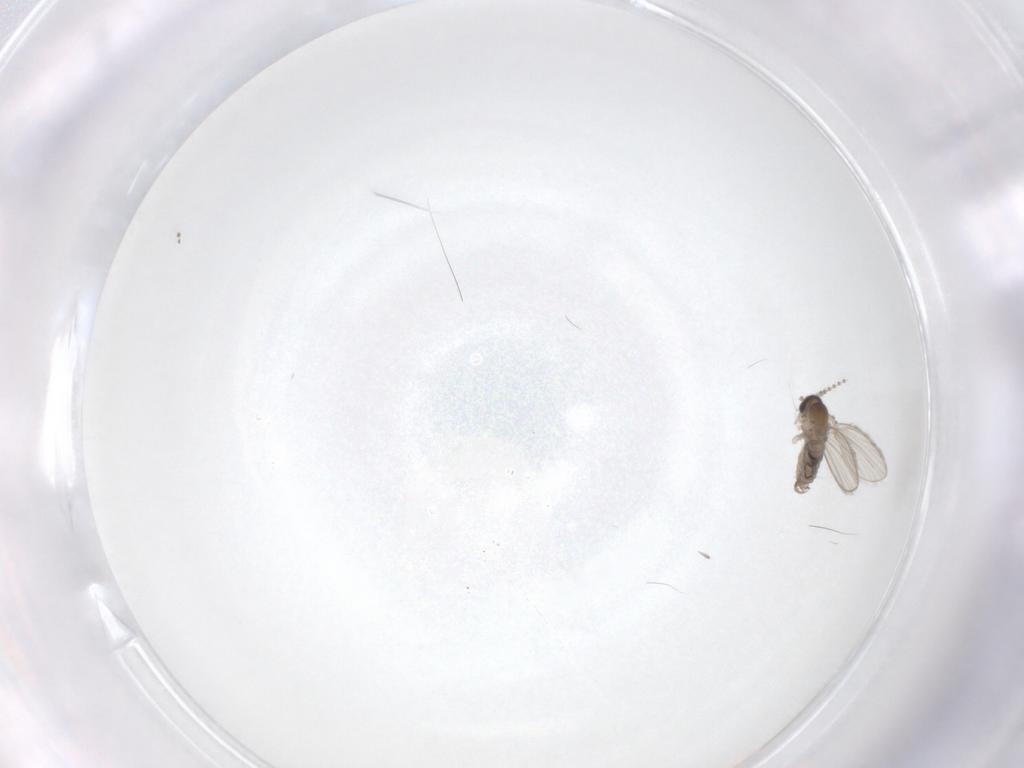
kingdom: Animalia
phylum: Arthropoda
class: Insecta
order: Diptera
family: Psychodidae
